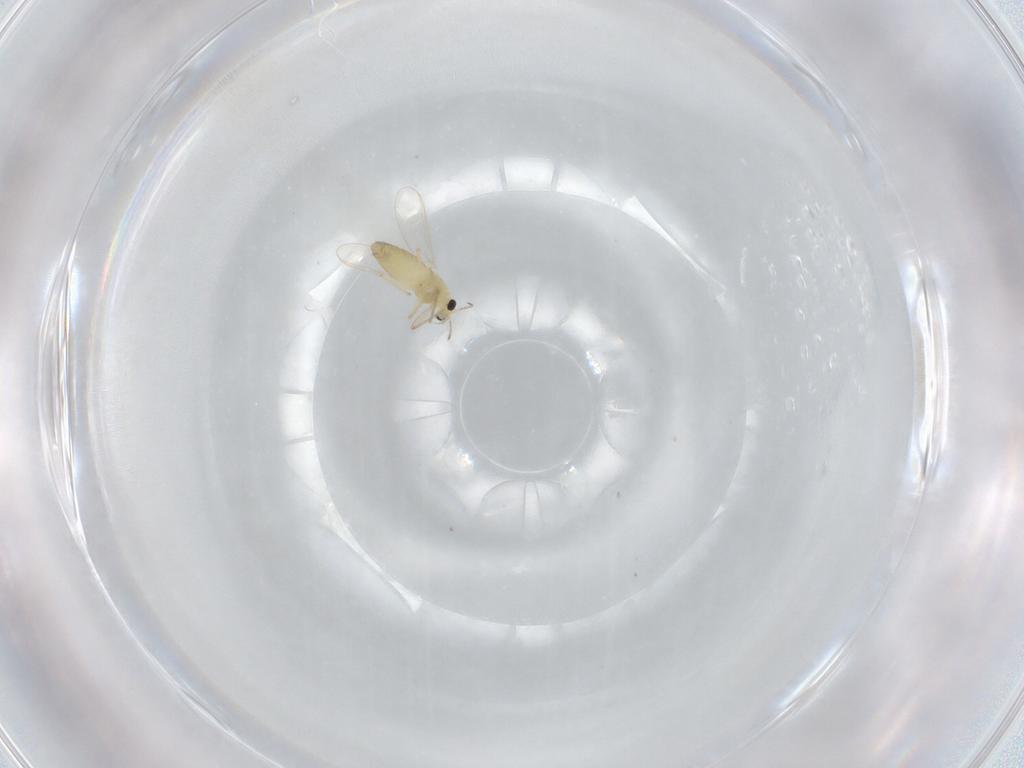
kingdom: Animalia
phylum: Arthropoda
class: Insecta
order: Diptera
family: Chironomidae
